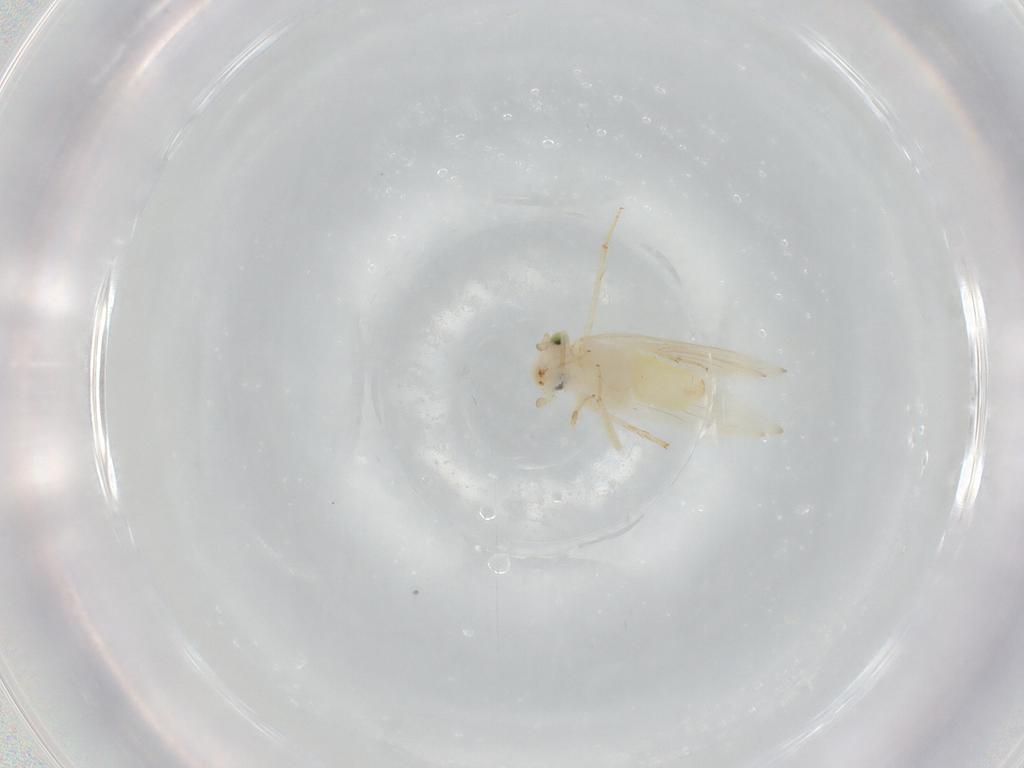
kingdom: Animalia
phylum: Arthropoda
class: Insecta
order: Psocodea
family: Lepidopsocidae
